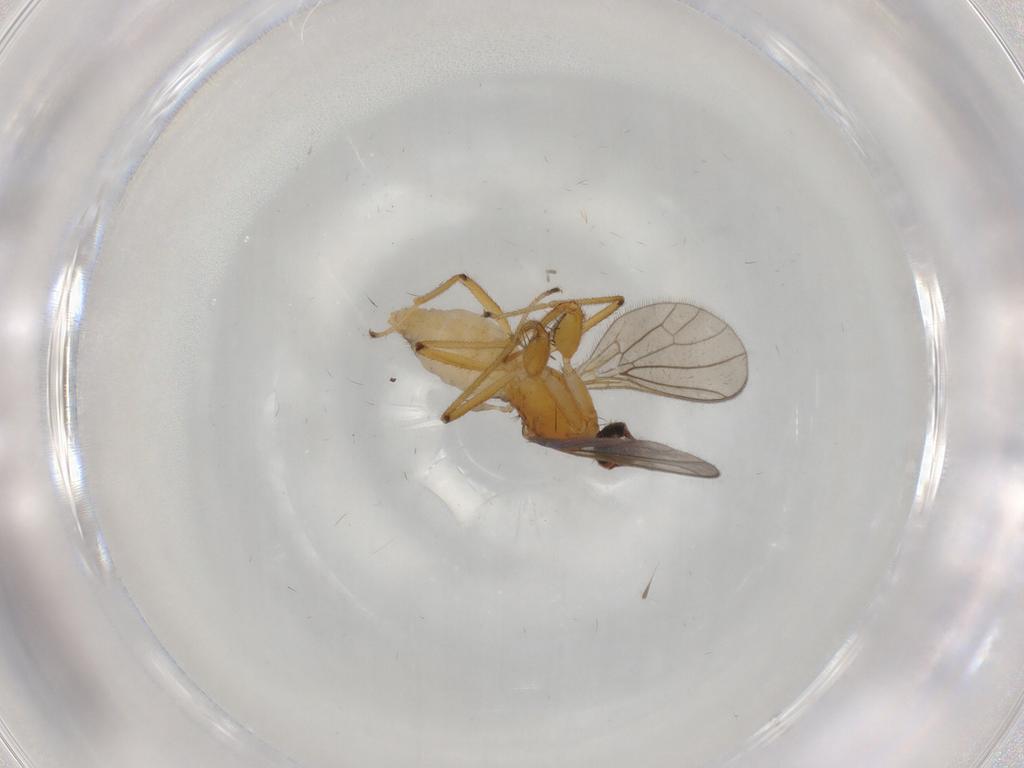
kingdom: Animalia
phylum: Arthropoda
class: Insecta
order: Diptera
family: Empididae
